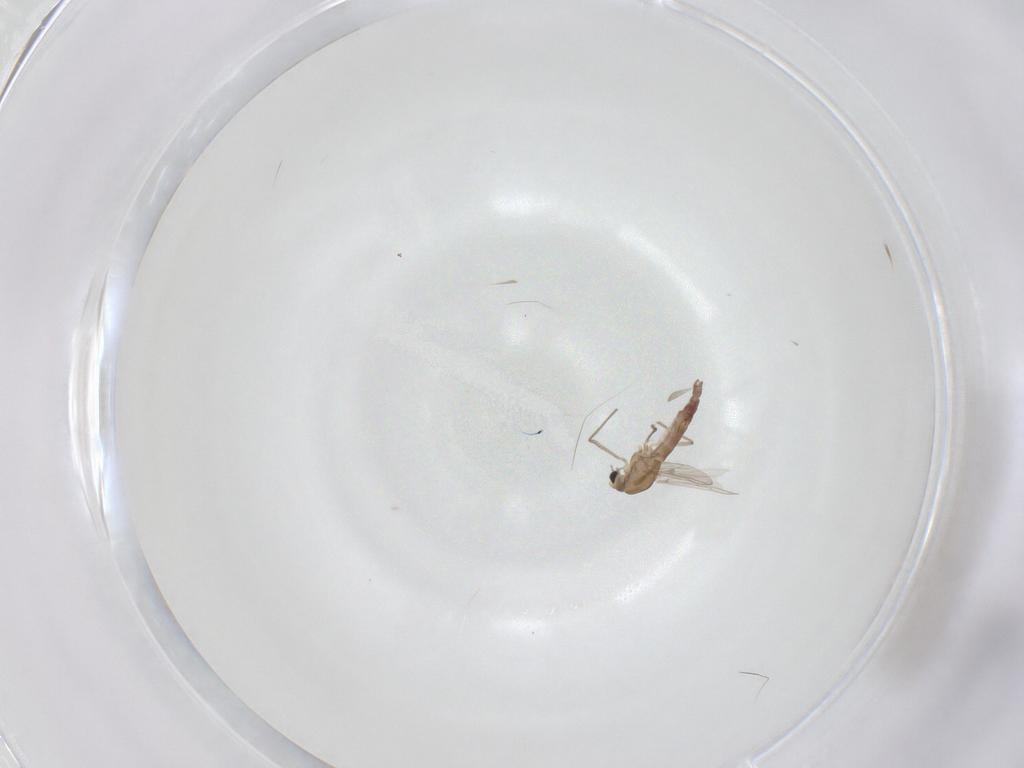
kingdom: Animalia
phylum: Arthropoda
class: Insecta
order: Diptera
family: Chironomidae
